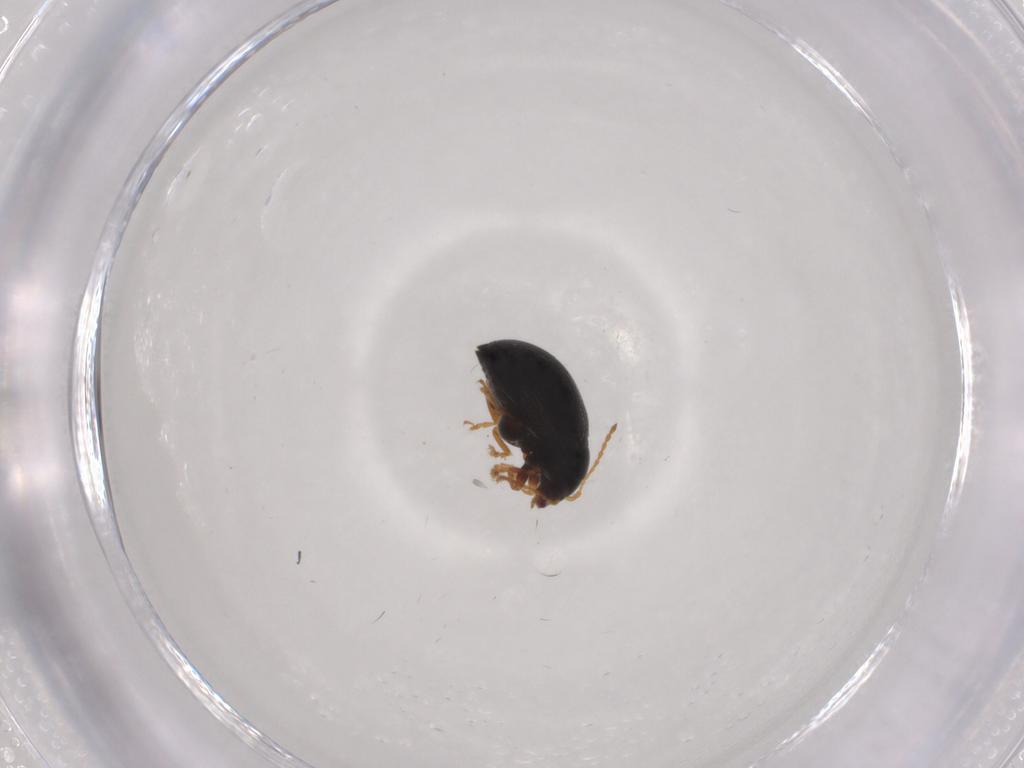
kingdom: Animalia
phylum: Arthropoda
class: Insecta
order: Coleoptera
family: Chrysomelidae
